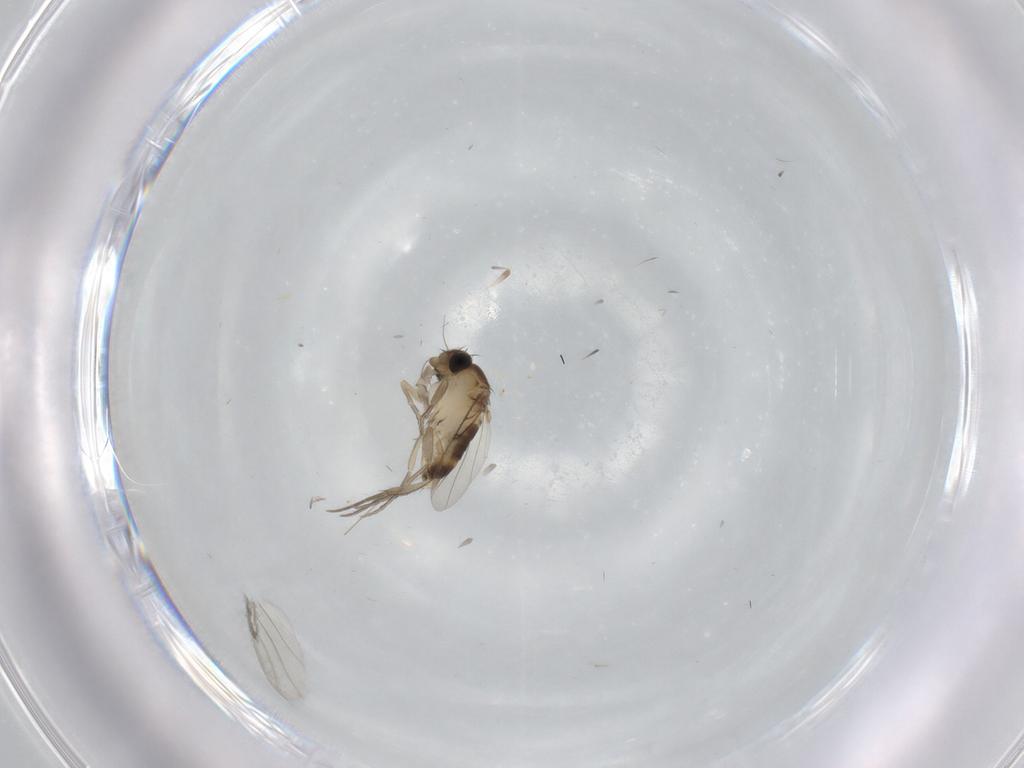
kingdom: Animalia
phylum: Arthropoda
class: Insecta
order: Diptera
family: Phoridae
